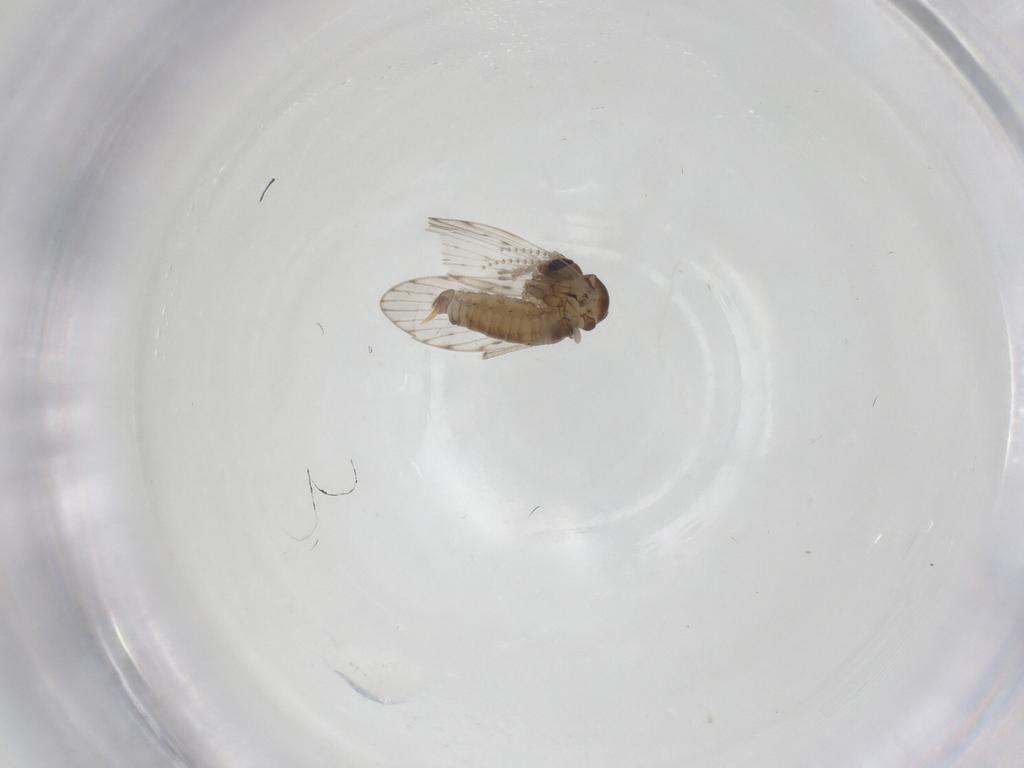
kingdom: Animalia
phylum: Arthropoda
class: Insecta
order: Diptera
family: Psychodidae
